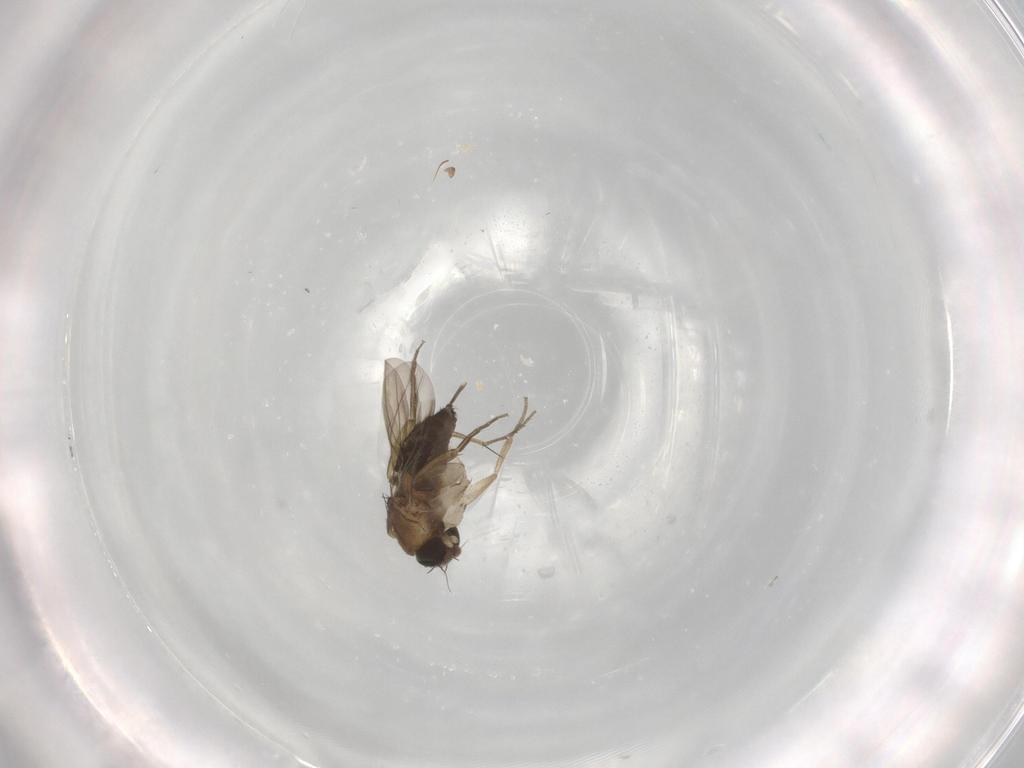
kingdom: Animalia
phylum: Arthropoda
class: Insecta
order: Diptera
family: Phoridae
